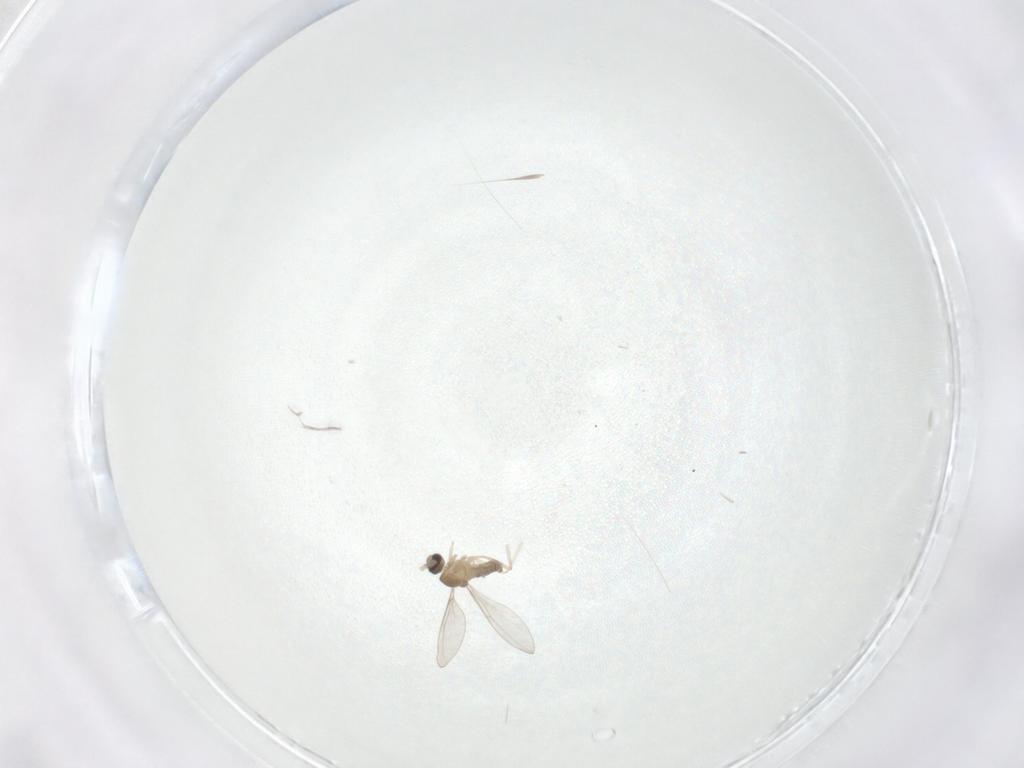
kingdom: Animalia
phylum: Arthropoda
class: Insecta
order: Diptera
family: Cecidomyiidae
